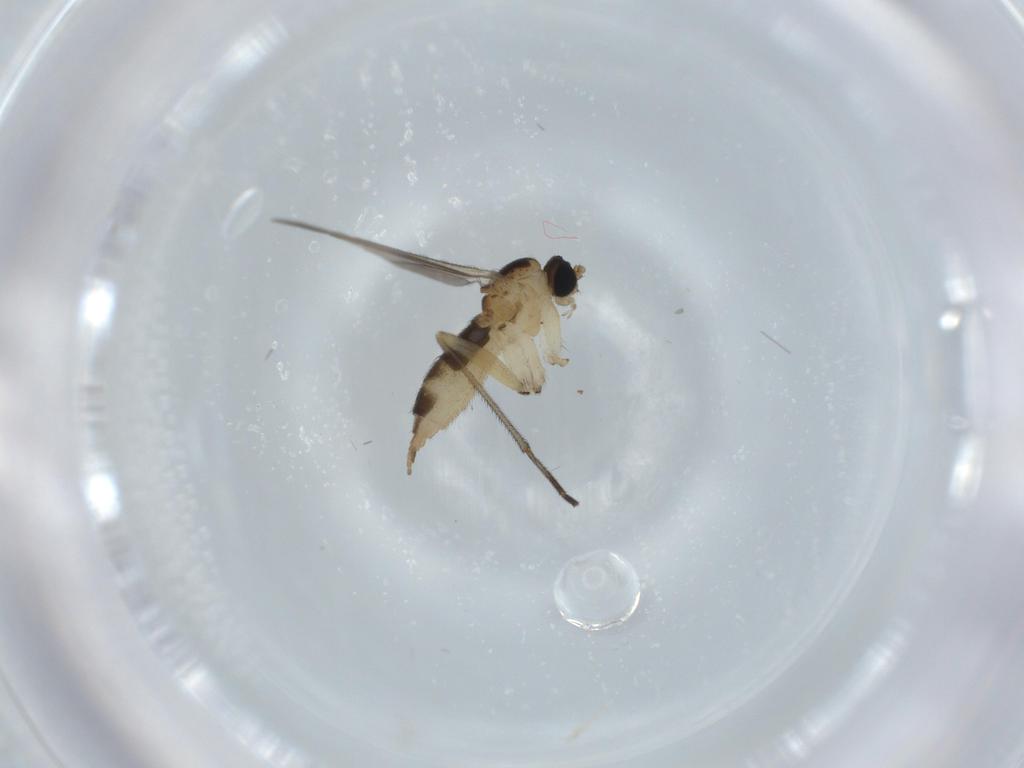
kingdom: Animalia
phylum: Arthropoda
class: Insecta
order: Diptera
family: Sciaridae
